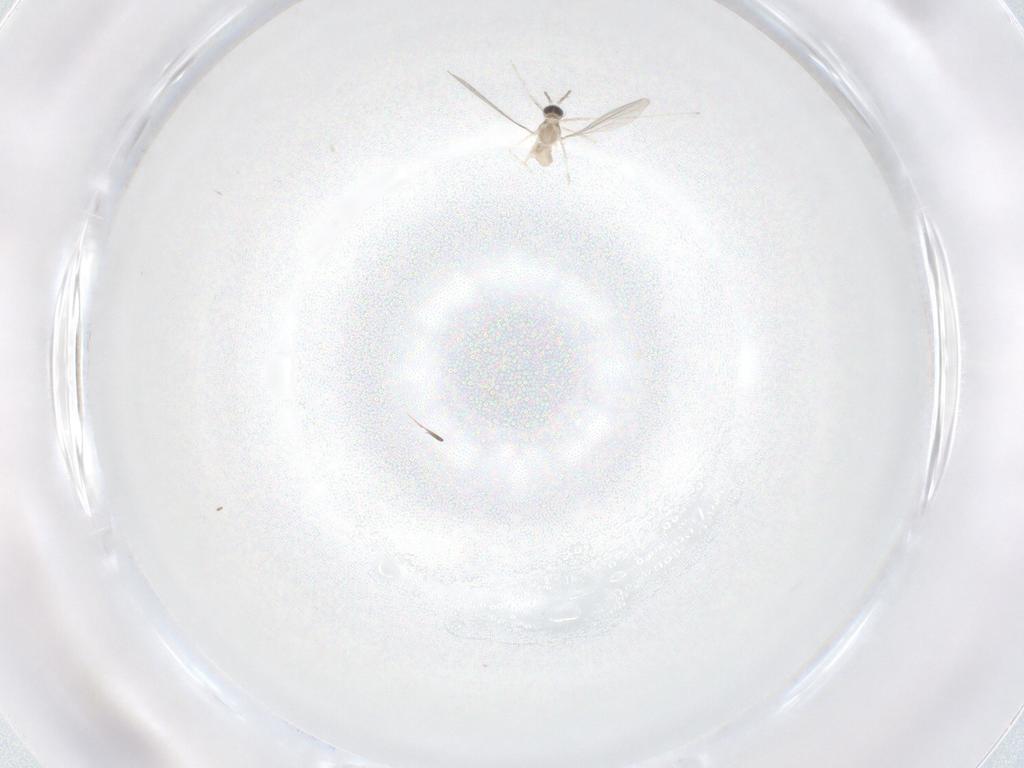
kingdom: Animalia
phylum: Arthropoda
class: Insecta
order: Diptera
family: Cecidomyiidae
